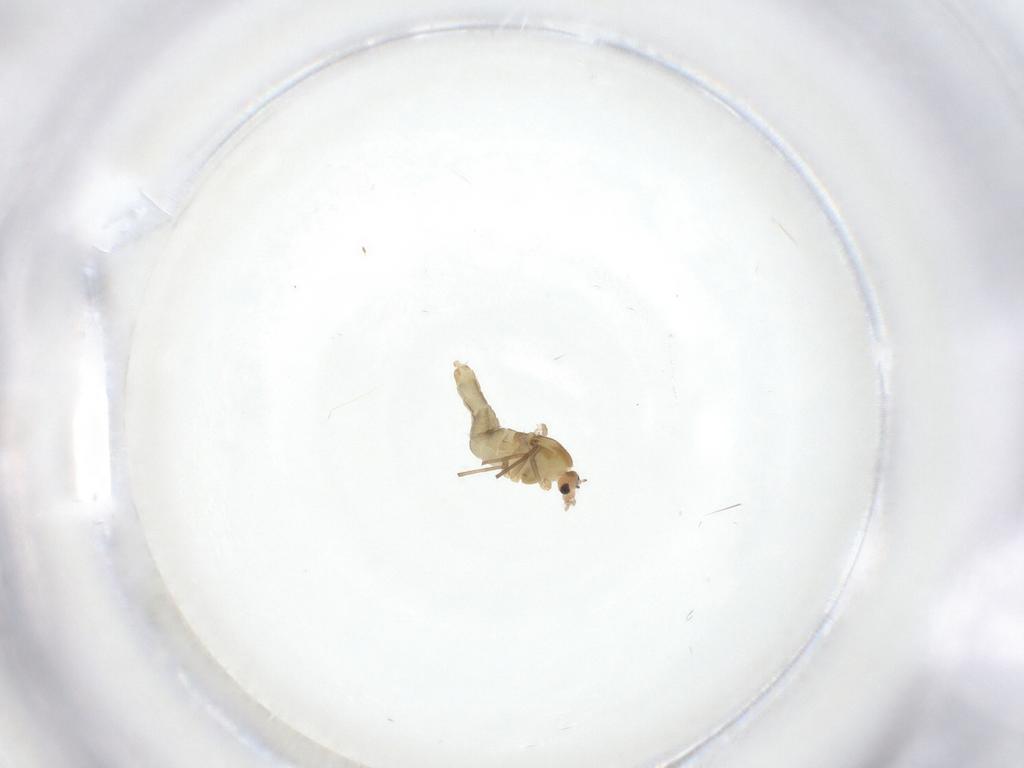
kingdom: Animalia
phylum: Arthropoda
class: Insecta
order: Diptera
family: Chironomidae
